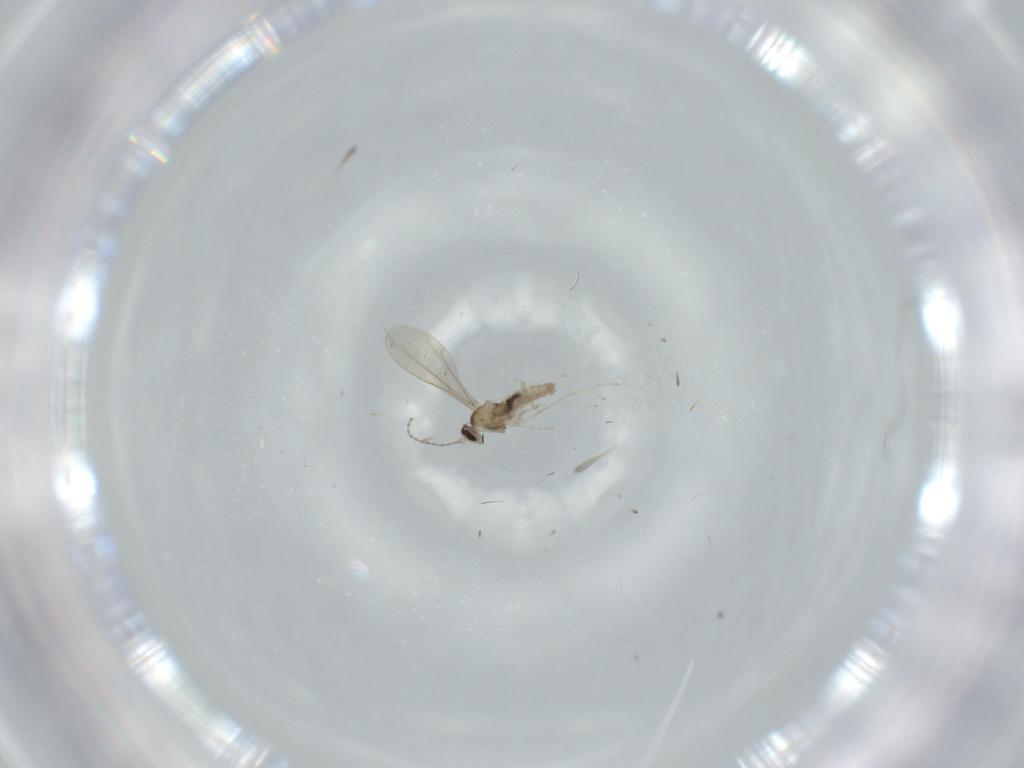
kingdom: Animalia
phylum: Arthropoda
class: Insecta
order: Diptera
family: Cecidomyiidae
